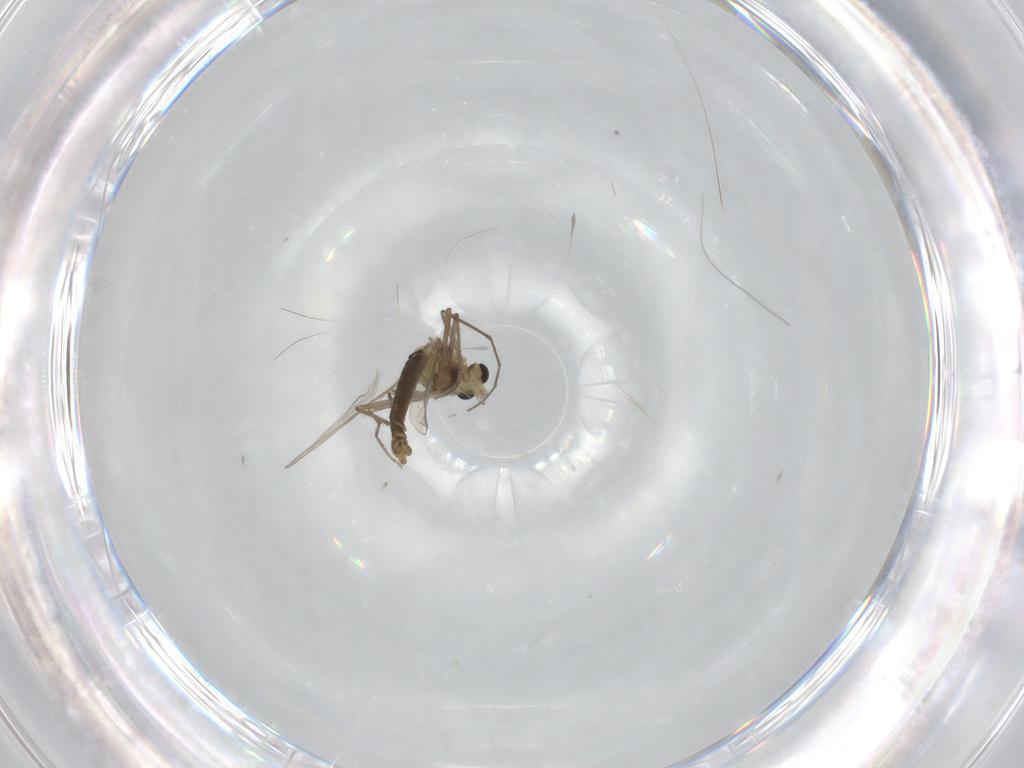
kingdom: Animalia
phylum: Arthropoda
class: Insecta
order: Diptera
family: Chironomidae
